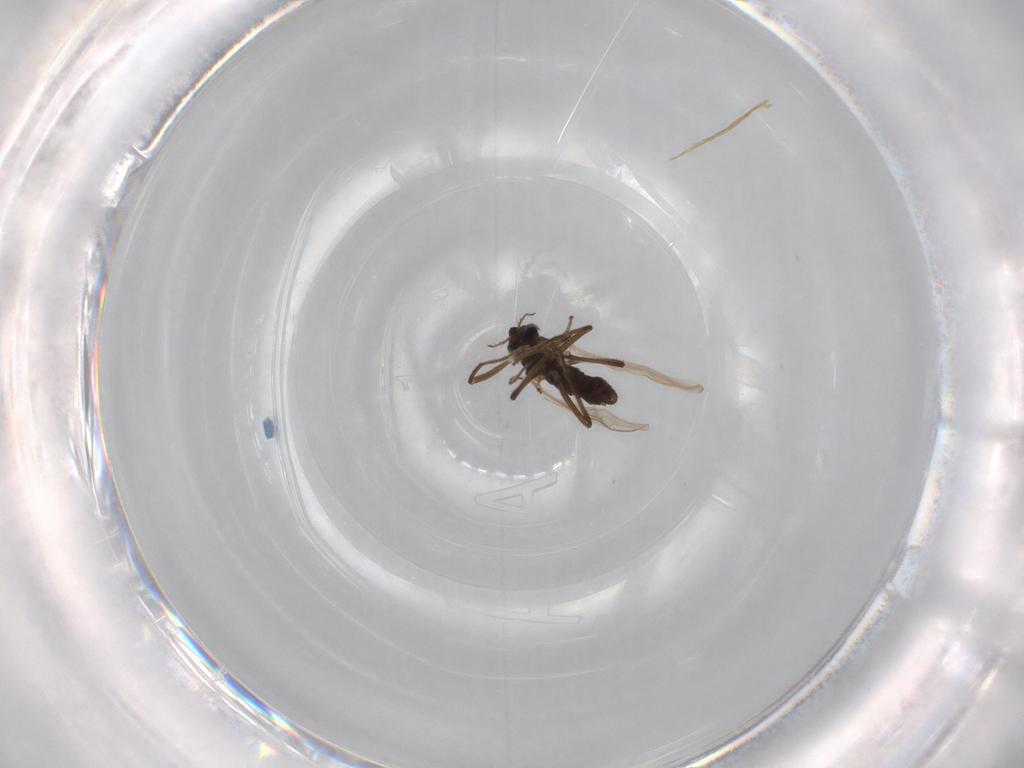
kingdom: Animalia
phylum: Arthropoda
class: Insecta
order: Diptera
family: Chironomidae
